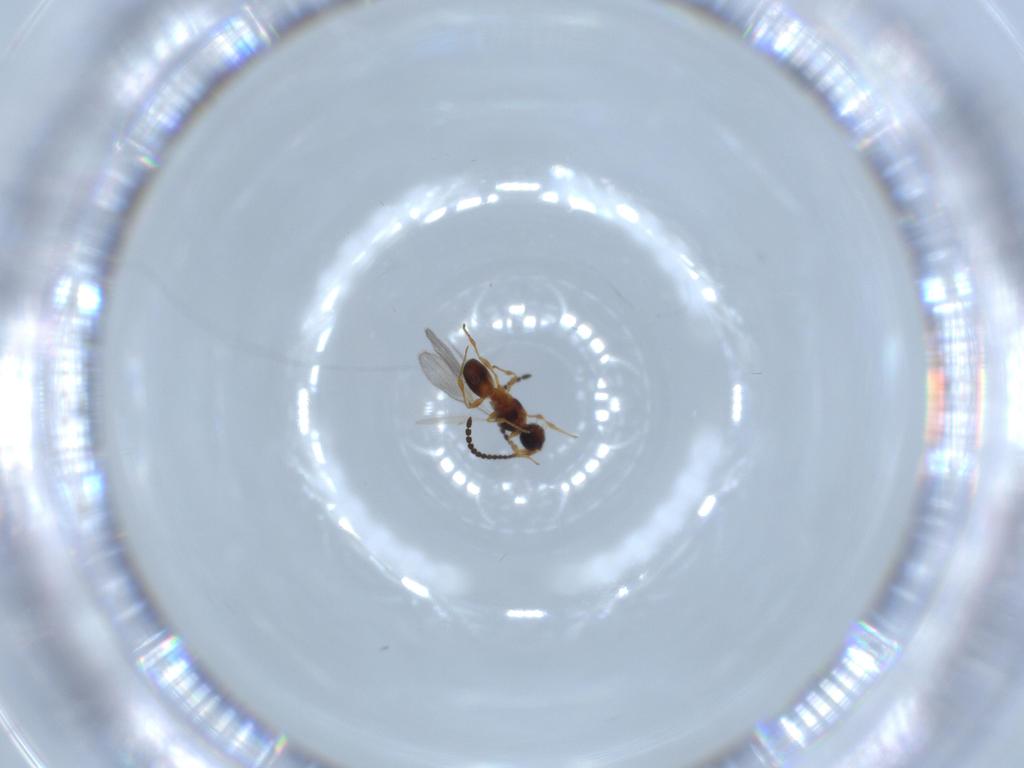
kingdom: Animalia
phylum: Arthropoda
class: Insecta
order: Hymenoptera
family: Diapriidae
